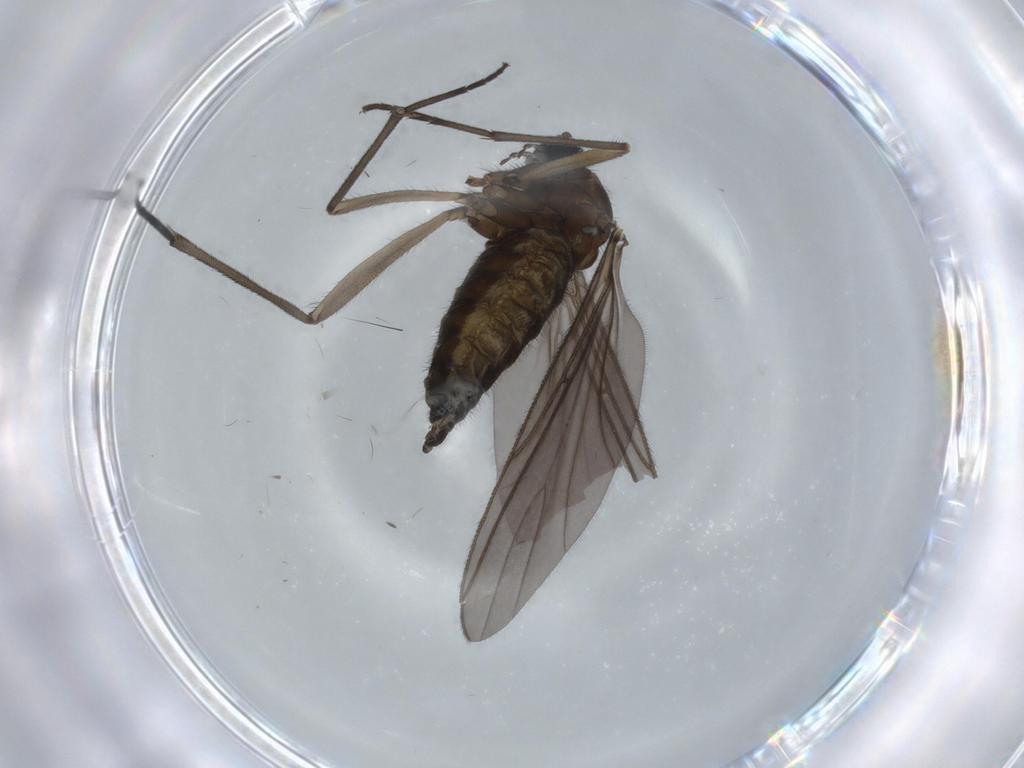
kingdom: Animalia
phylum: Arthropoda
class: Insecta
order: Diptera
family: Sciaridae
